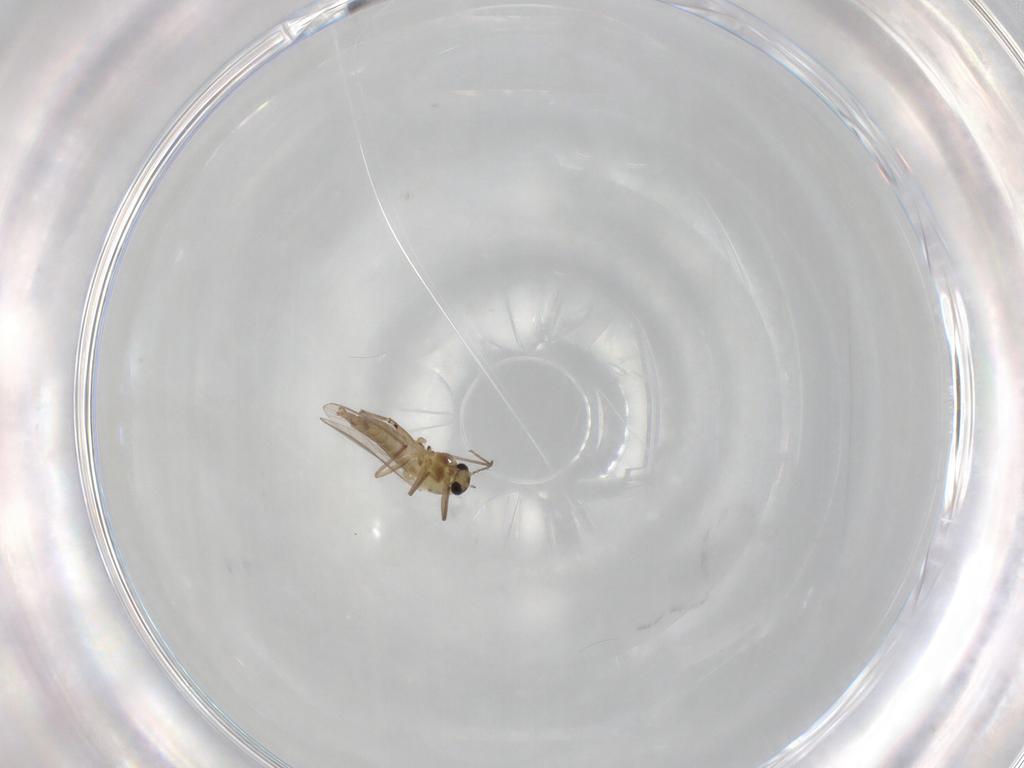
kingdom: Animalia
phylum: Arthropoda
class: Insecta
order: Diptera
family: Chironomidae
